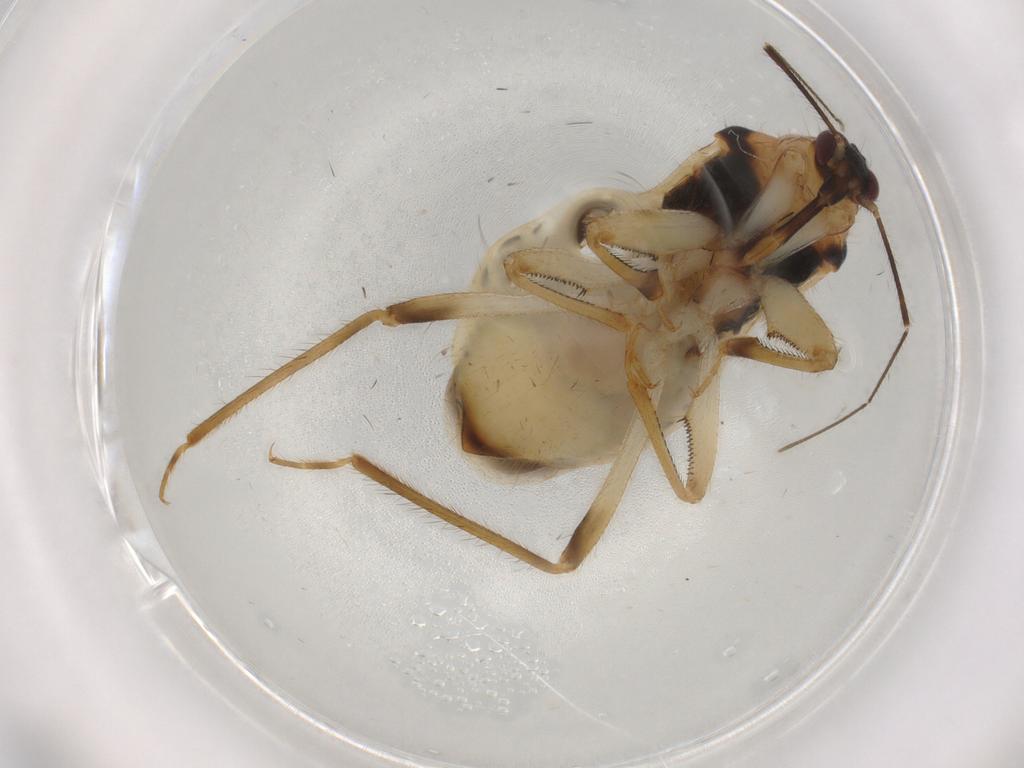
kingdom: Animalia
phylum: Arthropoda
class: Insecta
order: Hemiptera
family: Nabidae
